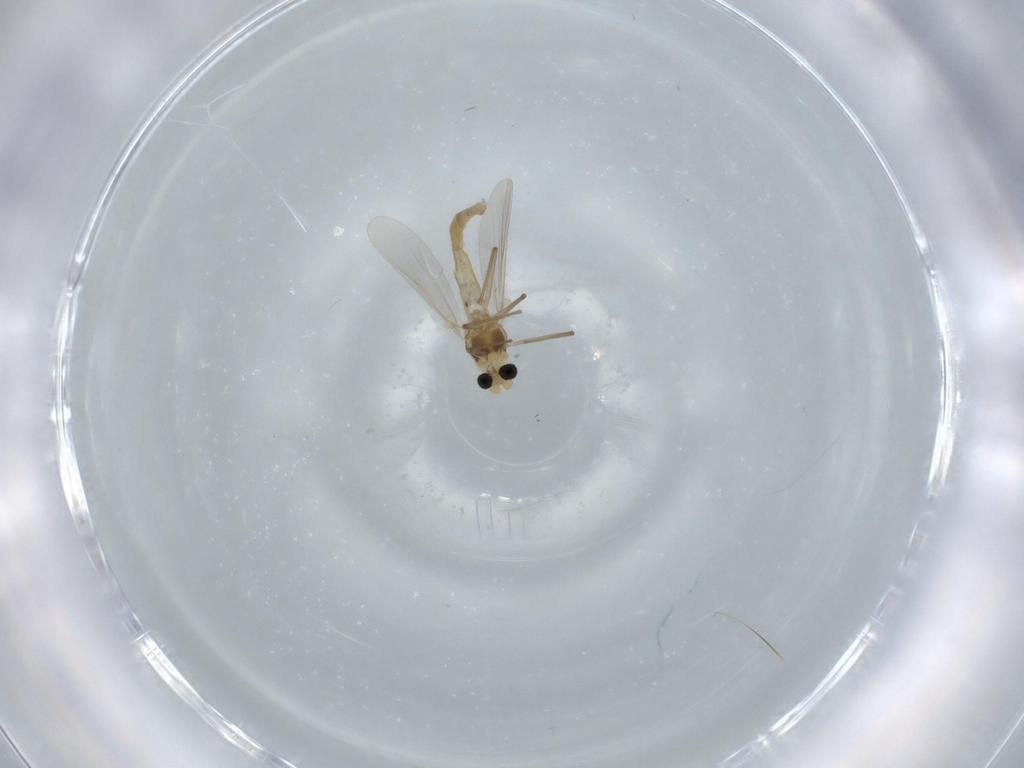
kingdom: Animalia
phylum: Arthropoda
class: Insecta
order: Diptera
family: Chironomidae
